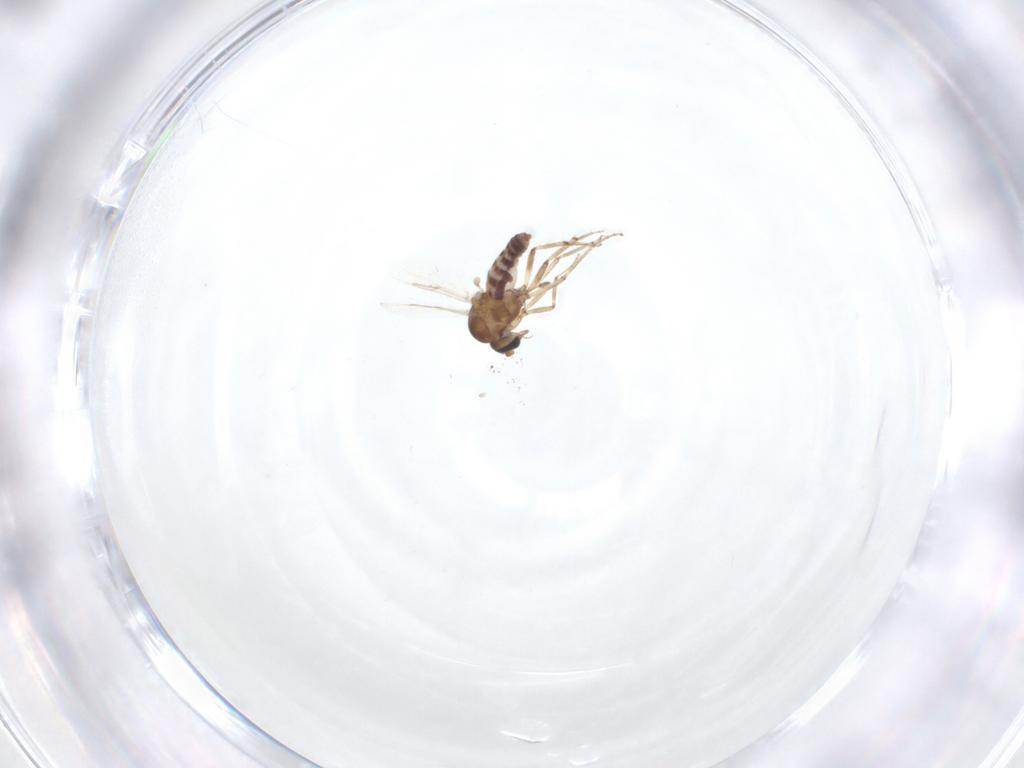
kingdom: Animalia
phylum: Arthropoda
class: Insecta
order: Diptera
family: Ceratopogonidae
